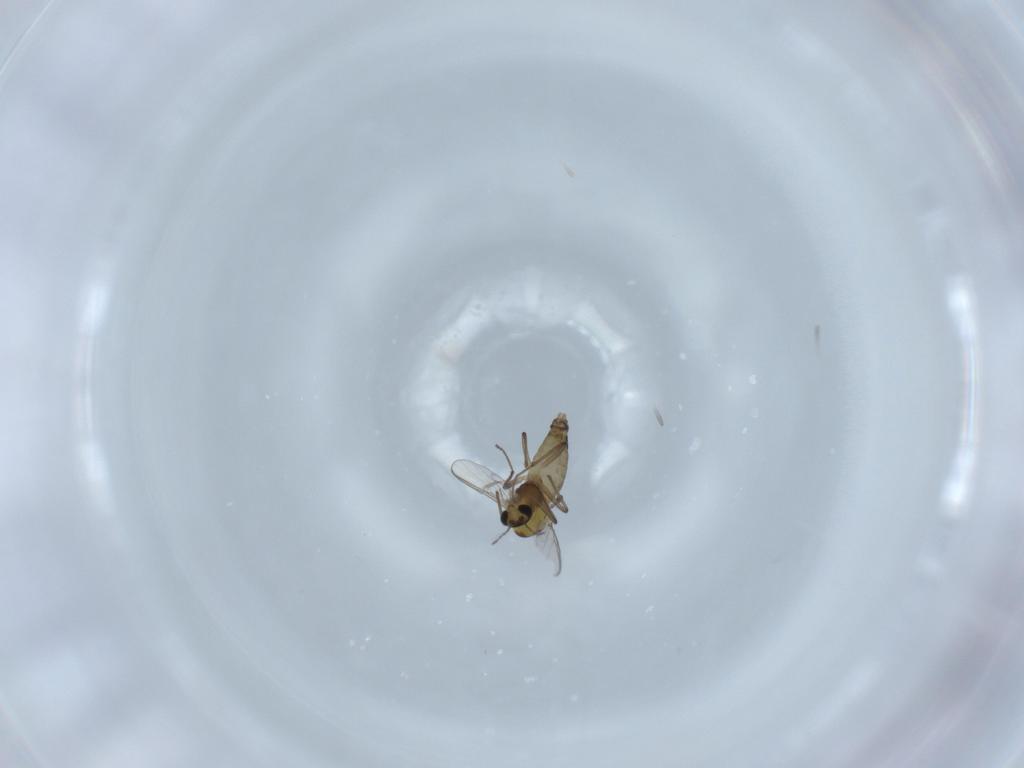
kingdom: Animalia
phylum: Arthropoda
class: Insecta
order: Diptera
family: Chironomidae
